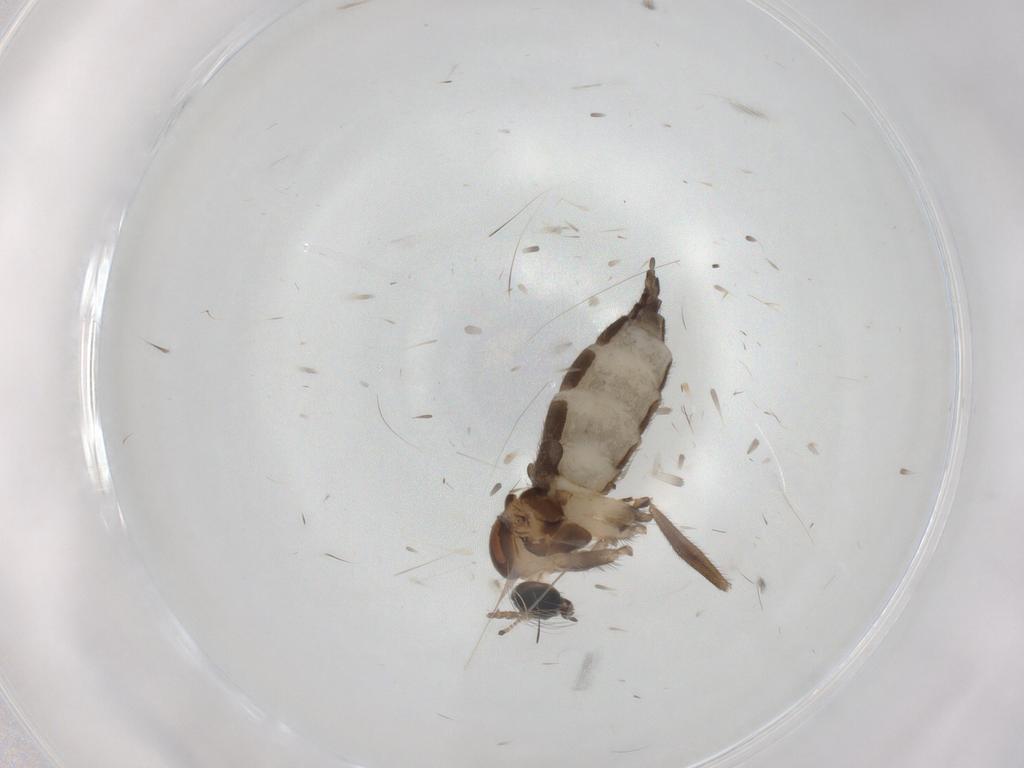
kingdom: Animalia
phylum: Arthropoda
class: Insecta
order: Diptera
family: Sciaridae
